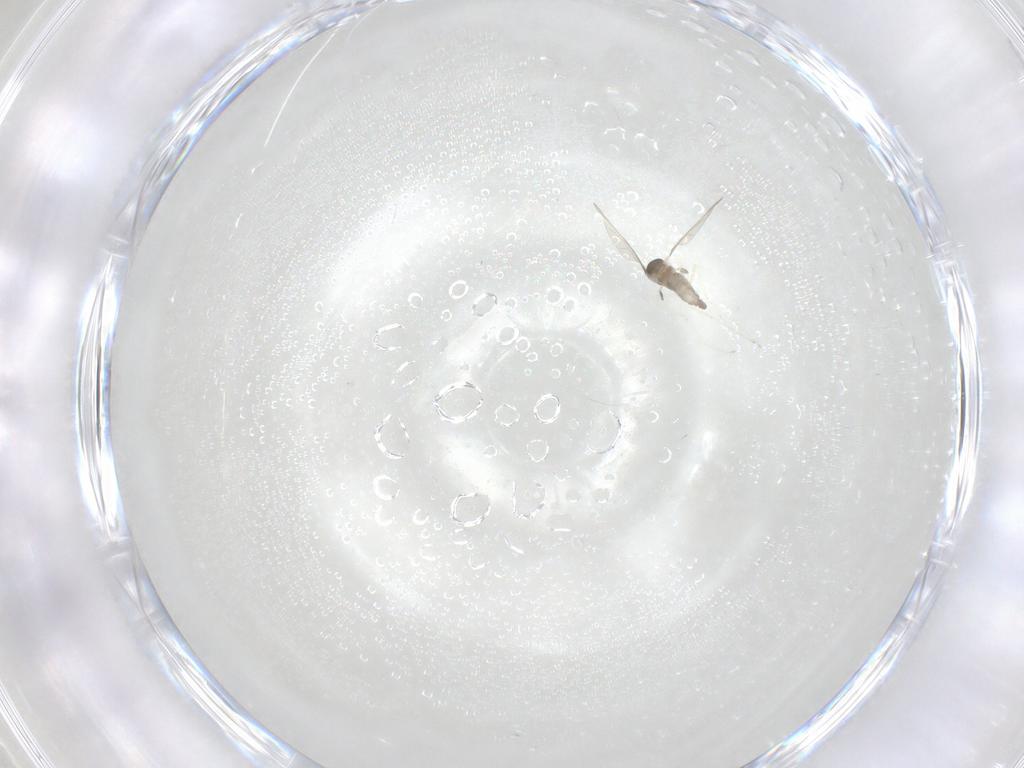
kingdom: Animalia
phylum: Arthropoda
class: Insecta
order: Diptera
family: Cecidomyiidae
